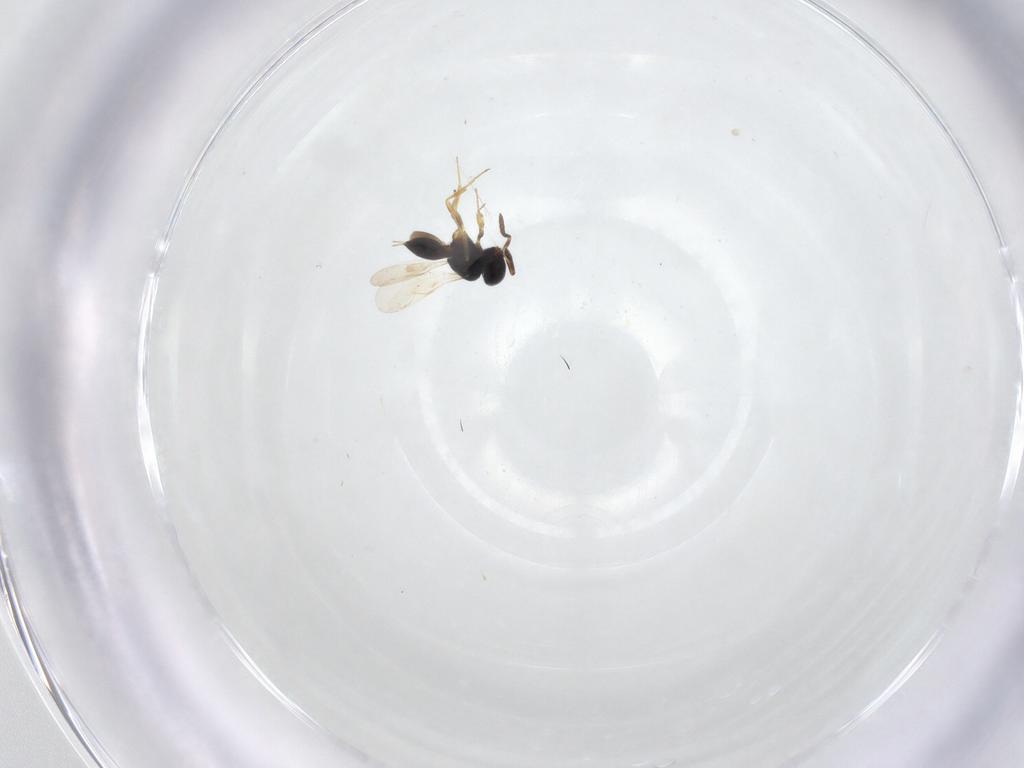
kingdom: Animalia
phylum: Arthropoda
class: Insecta
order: Hymenoptera
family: Scelionidae
